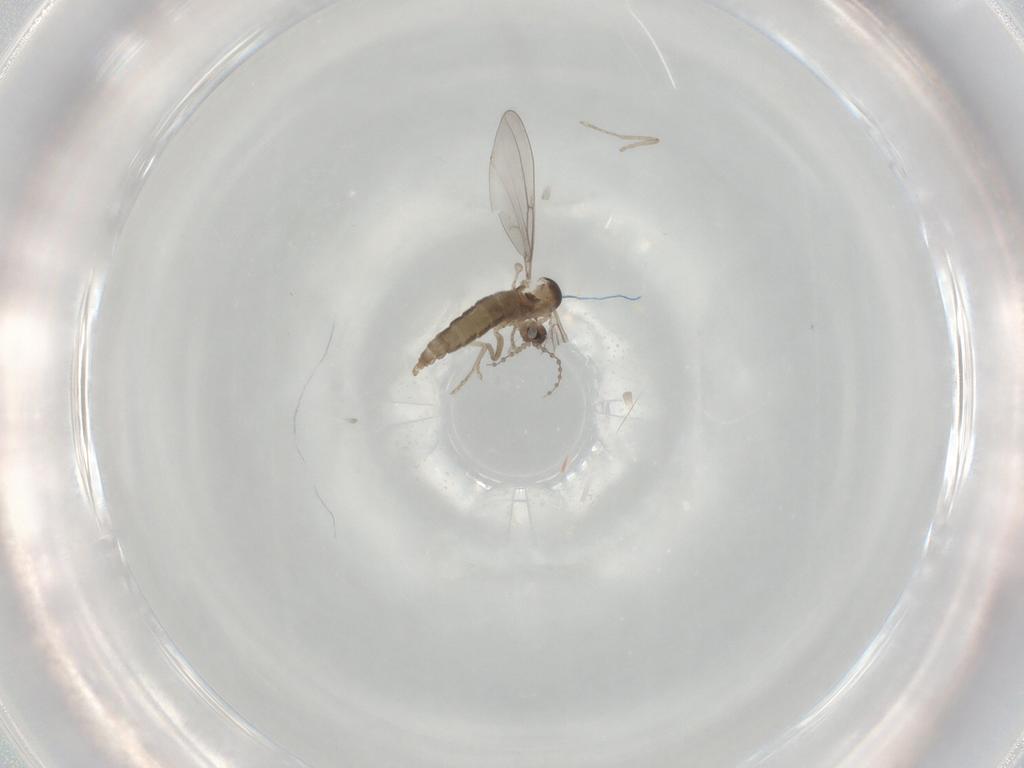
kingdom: Animalia
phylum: Arthropoda
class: Insecta
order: Diptera
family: Cecidomyiidae
